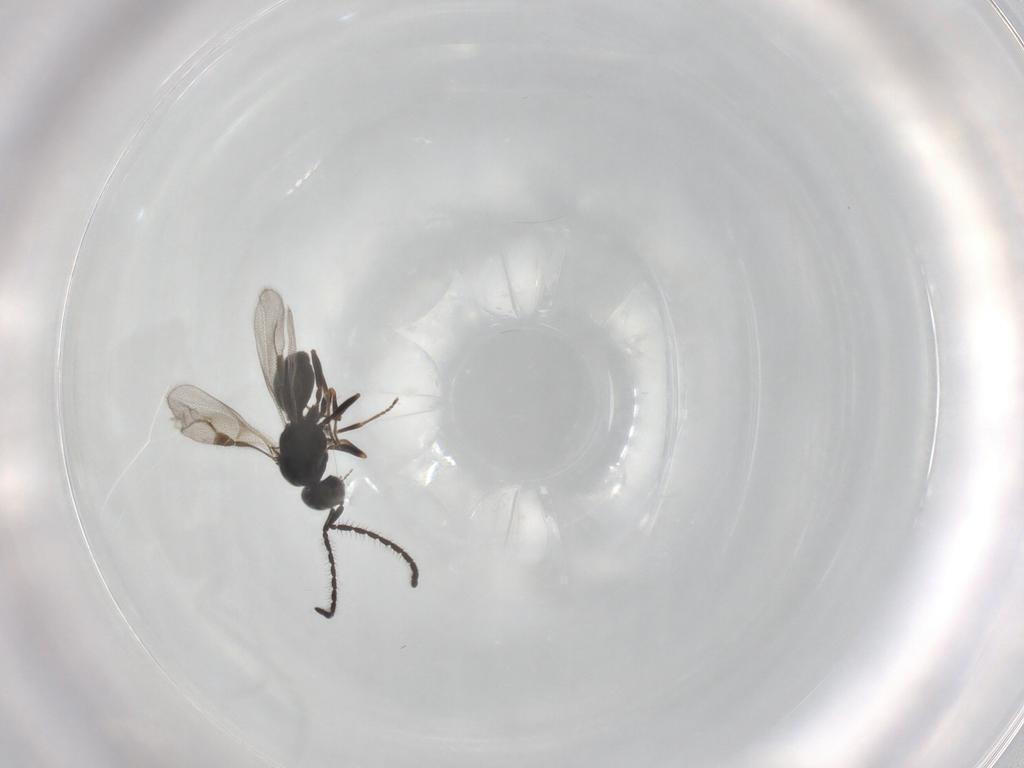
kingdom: Animalia
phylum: Arthropoda
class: Insecta
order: Hymenoptera
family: Megaspilidae
